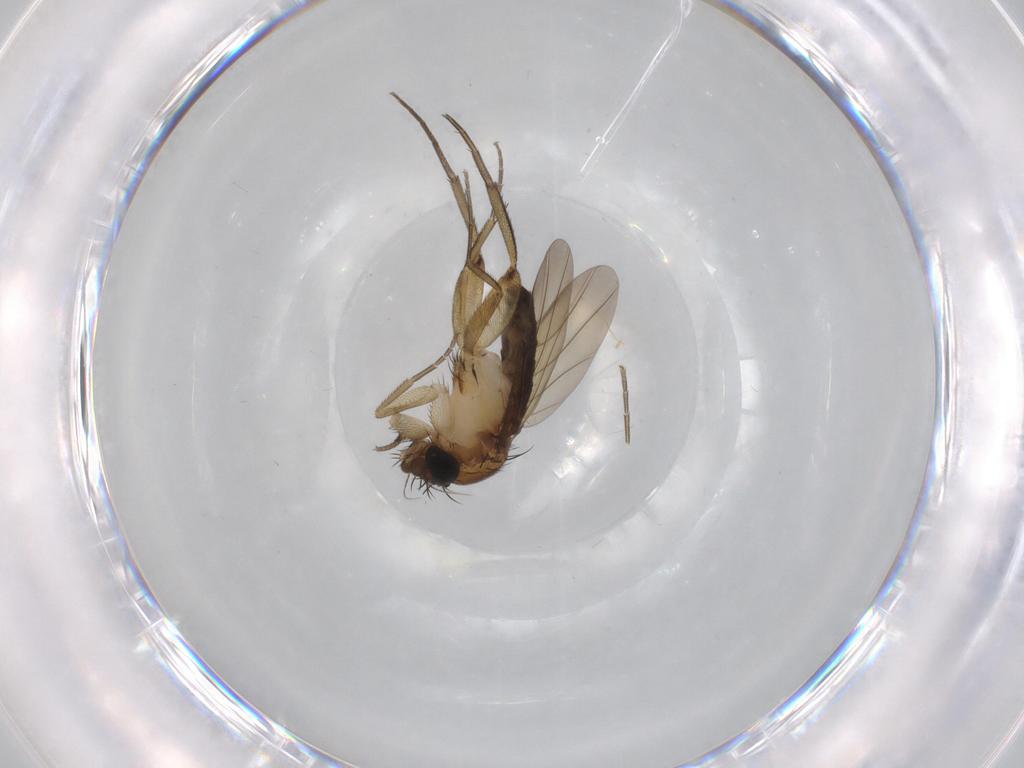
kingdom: Animalia
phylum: Arthropoda
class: Insecta
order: Diptera
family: Phoridae
